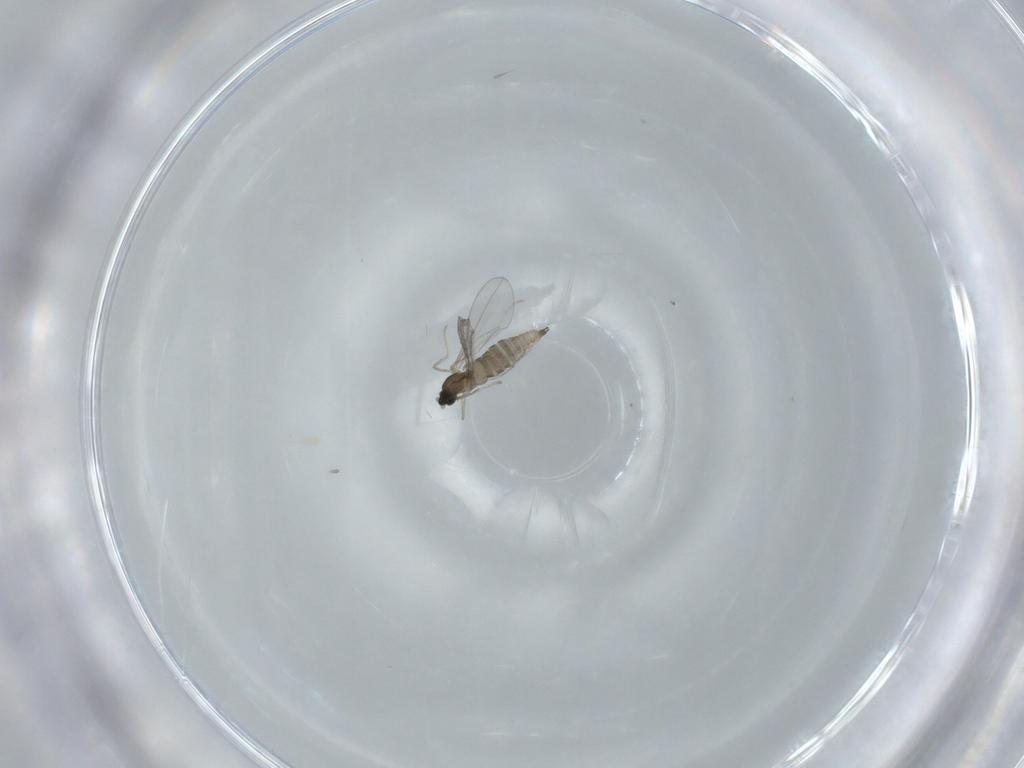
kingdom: Animalia
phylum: Arthropoda
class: Insecta
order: Diptera
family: Cecidomyiidae
